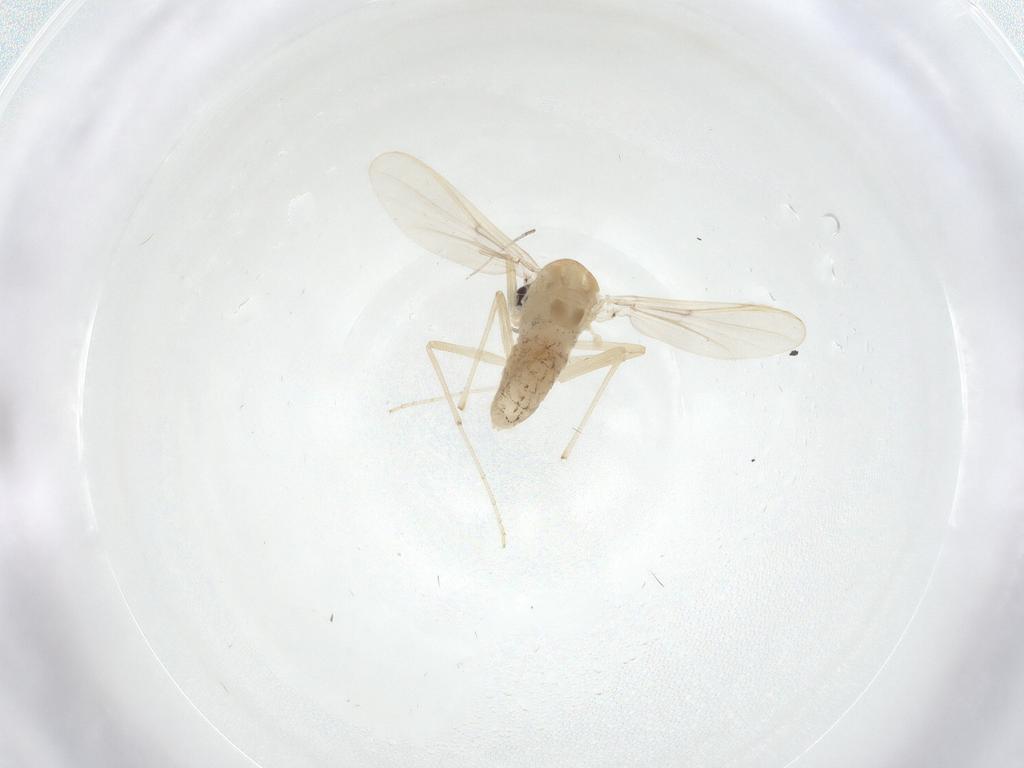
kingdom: Animalia
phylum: Arthropoda
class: Insecta
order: Diptera
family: Chironomidae
